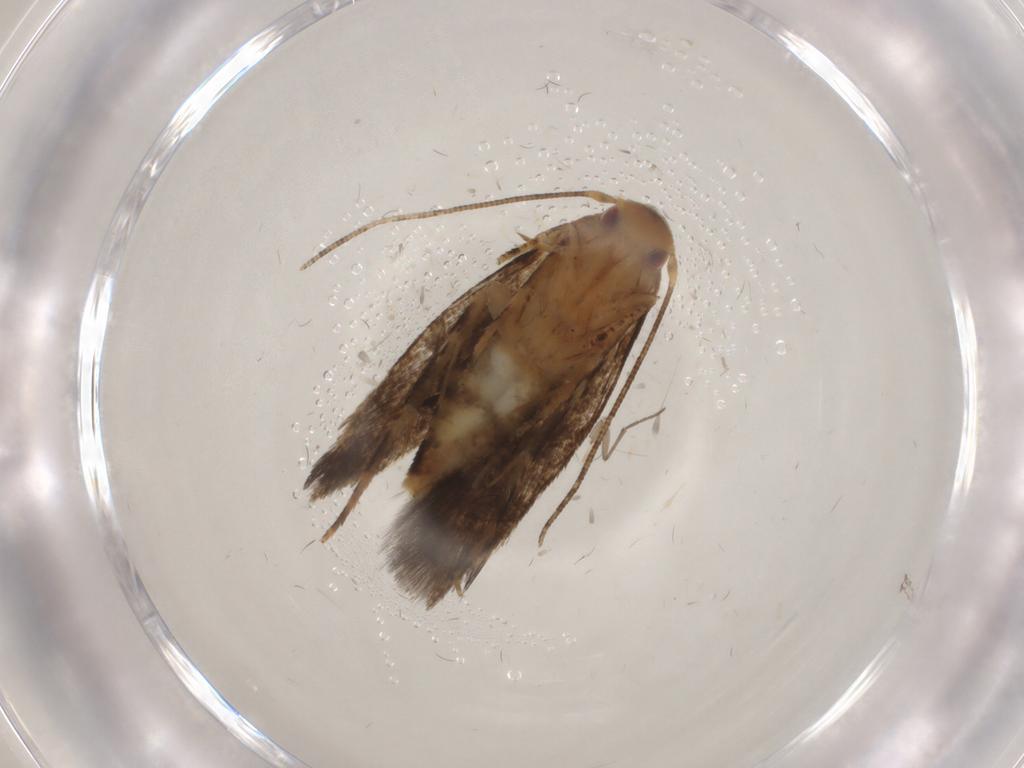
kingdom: Animalia
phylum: Arthropoda
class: Insecta
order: Lepidoptera
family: Momphidae
